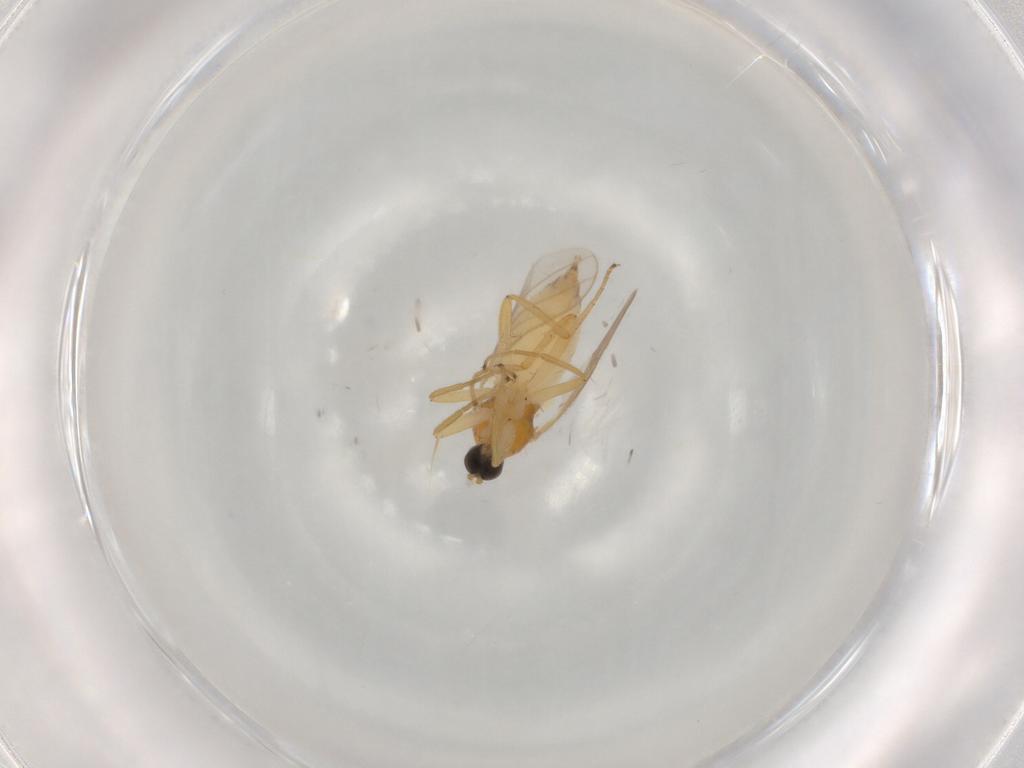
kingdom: Animalia
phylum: Arthropoda
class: Insecta
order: Diptera
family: Hybotidae
